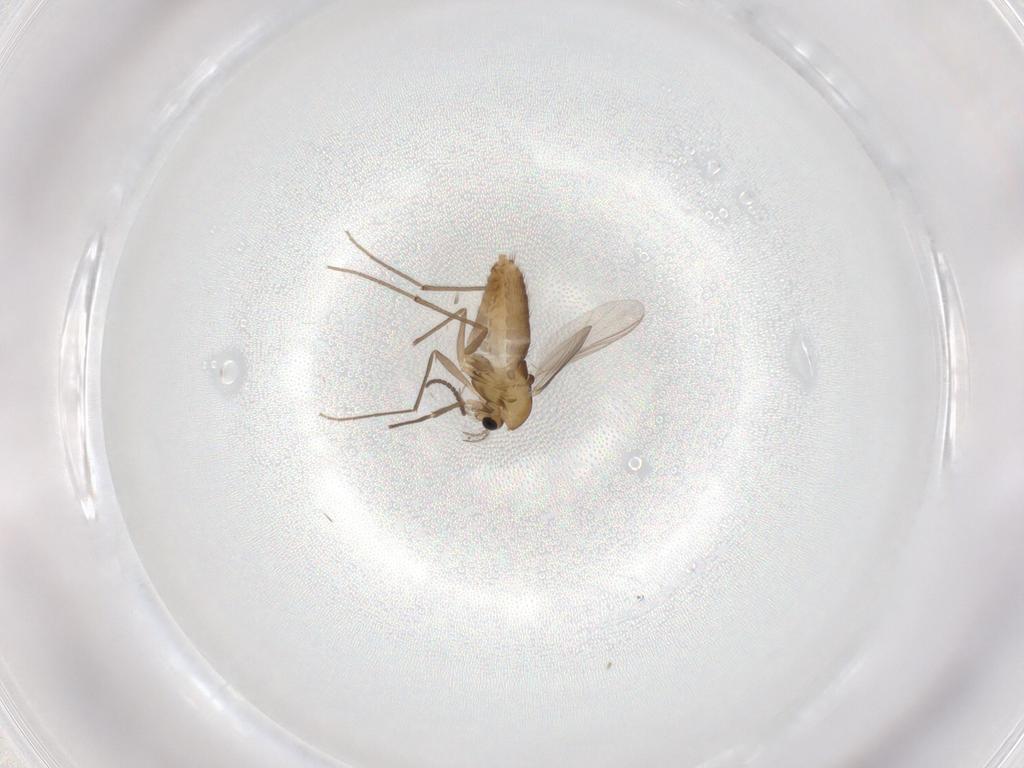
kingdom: Animalia
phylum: Arthropoda
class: Insecta
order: Diptera
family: Chironomidae
